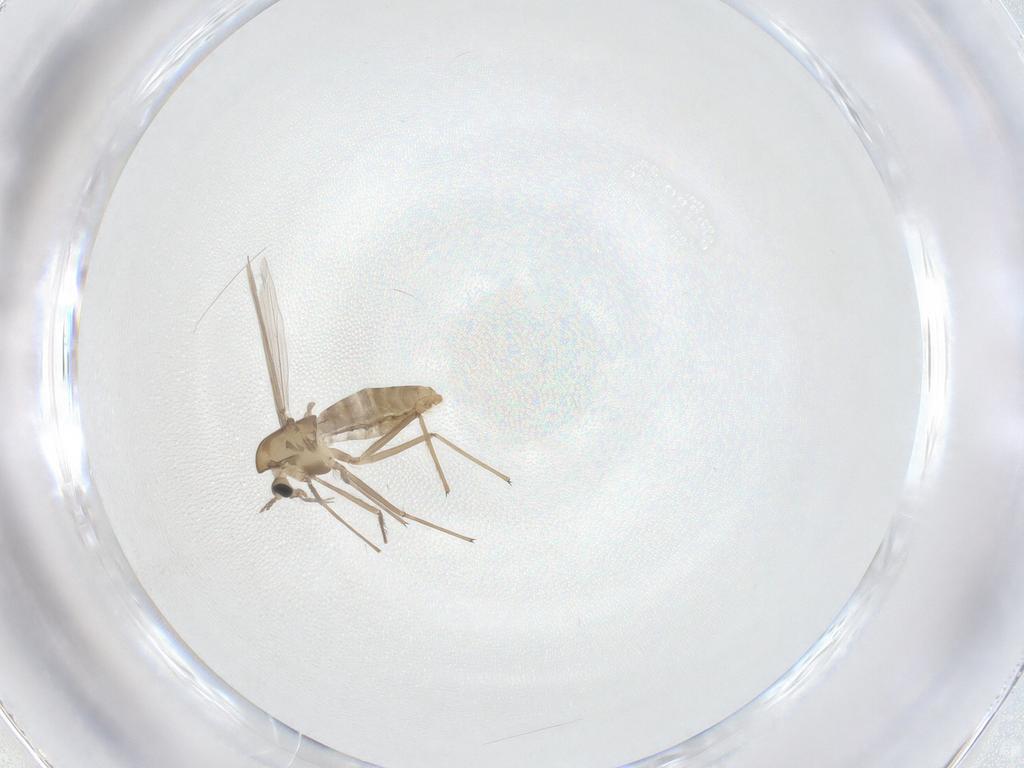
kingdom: Animalia
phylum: Arthropoda
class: Insecta
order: Diptera
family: Chironomidae
